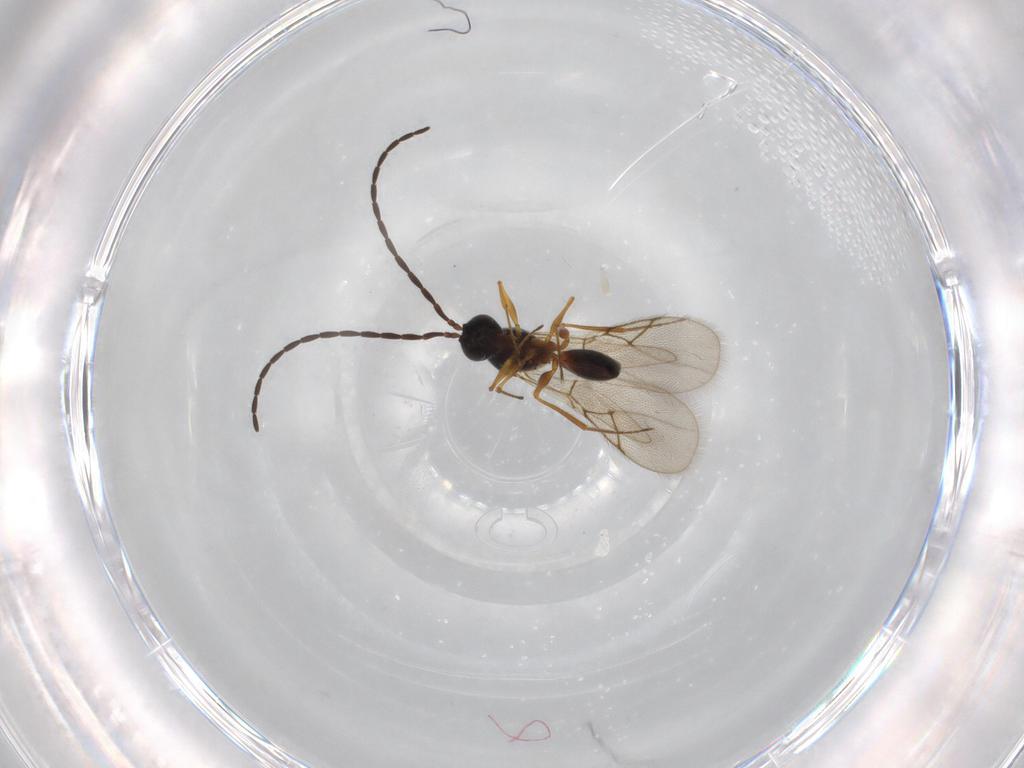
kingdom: Animalia
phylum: Arthropoda
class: Insecta
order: Hymenoptera
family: Figitidae
